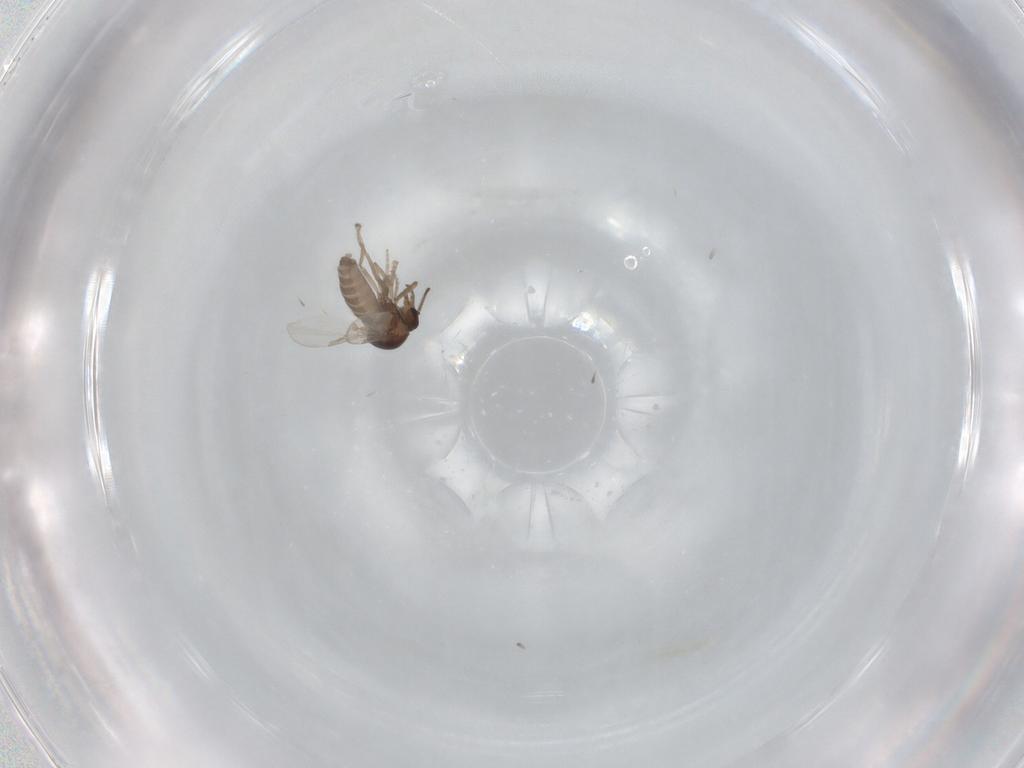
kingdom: Animalia
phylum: Arthropoda
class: Insecta
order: Diptera
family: Ceratopogonidae
